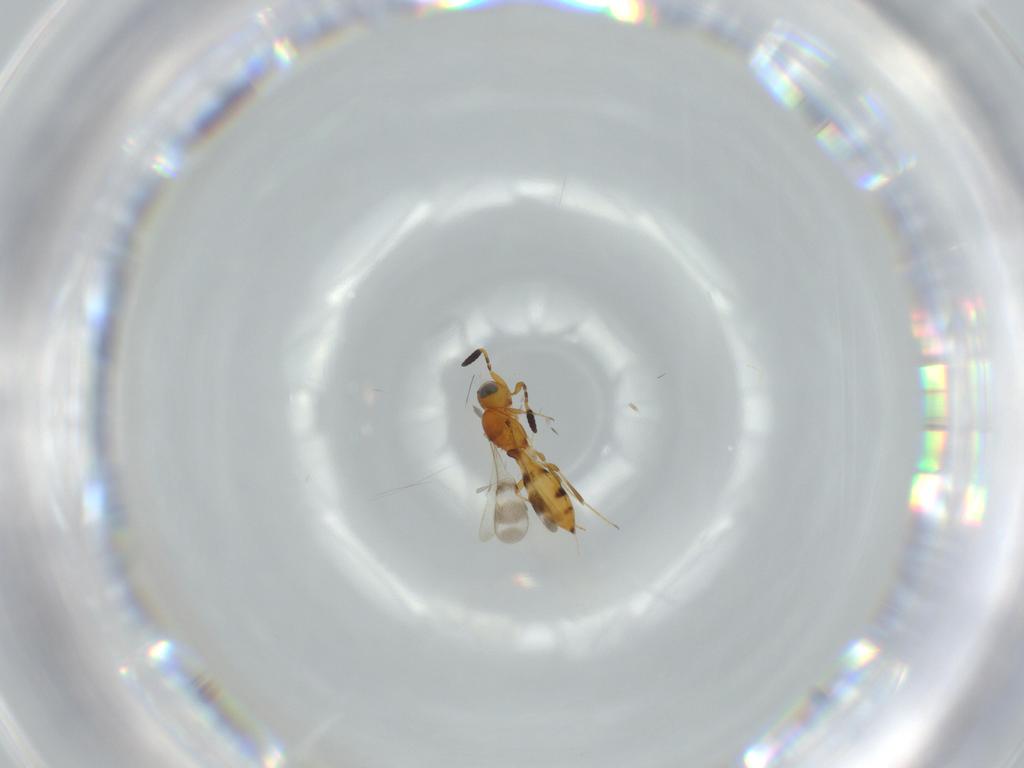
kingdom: Animalia
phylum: Arthropoda
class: Insecta
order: Hymenoptera
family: Scelionidae
